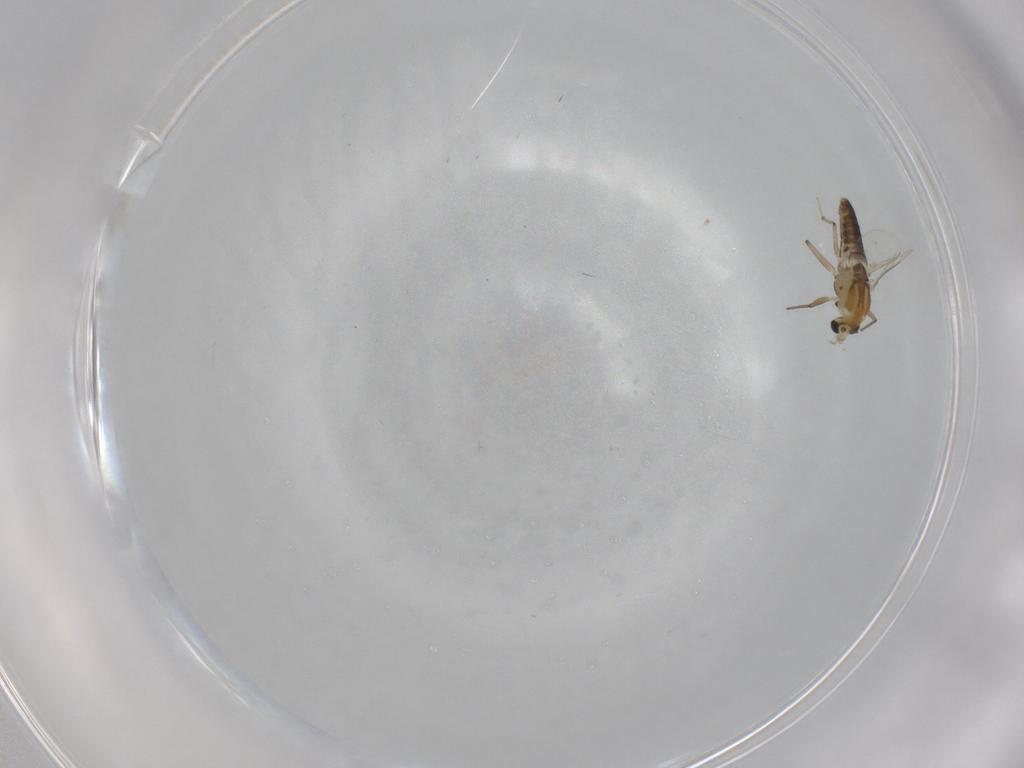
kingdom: Animalia
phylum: Arthropoda
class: Insecta
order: Diptera
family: Chironomidae
